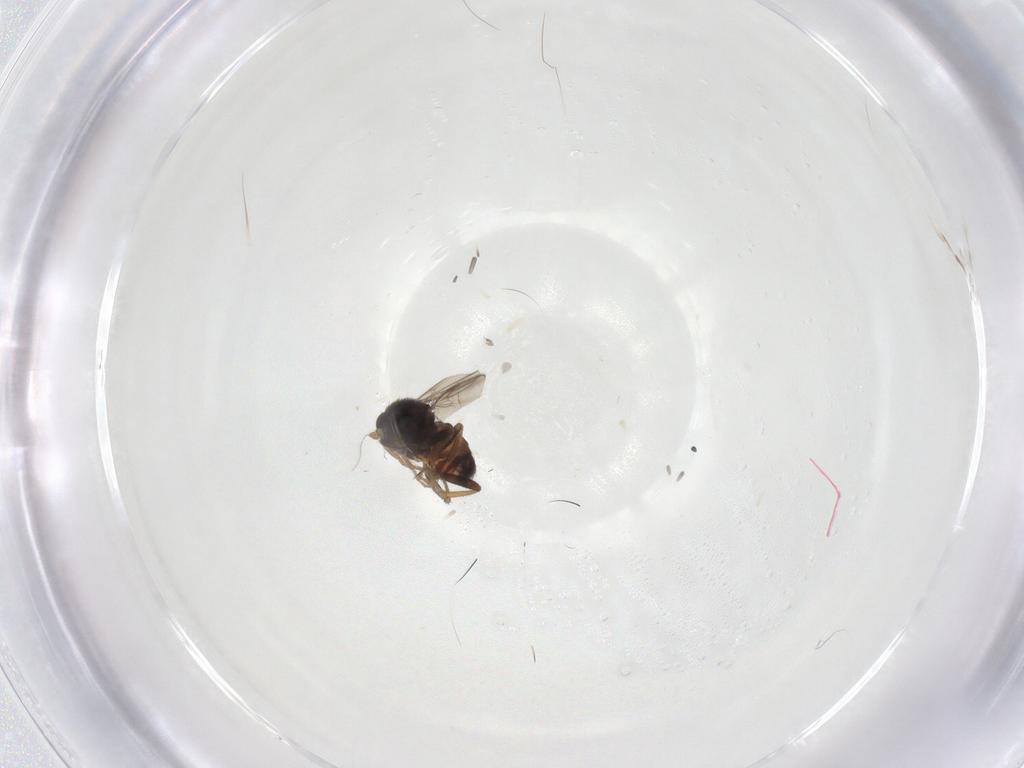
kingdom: Animalia
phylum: Arthropoda
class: Insecta
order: Diptera
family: Sphaeroceridae
